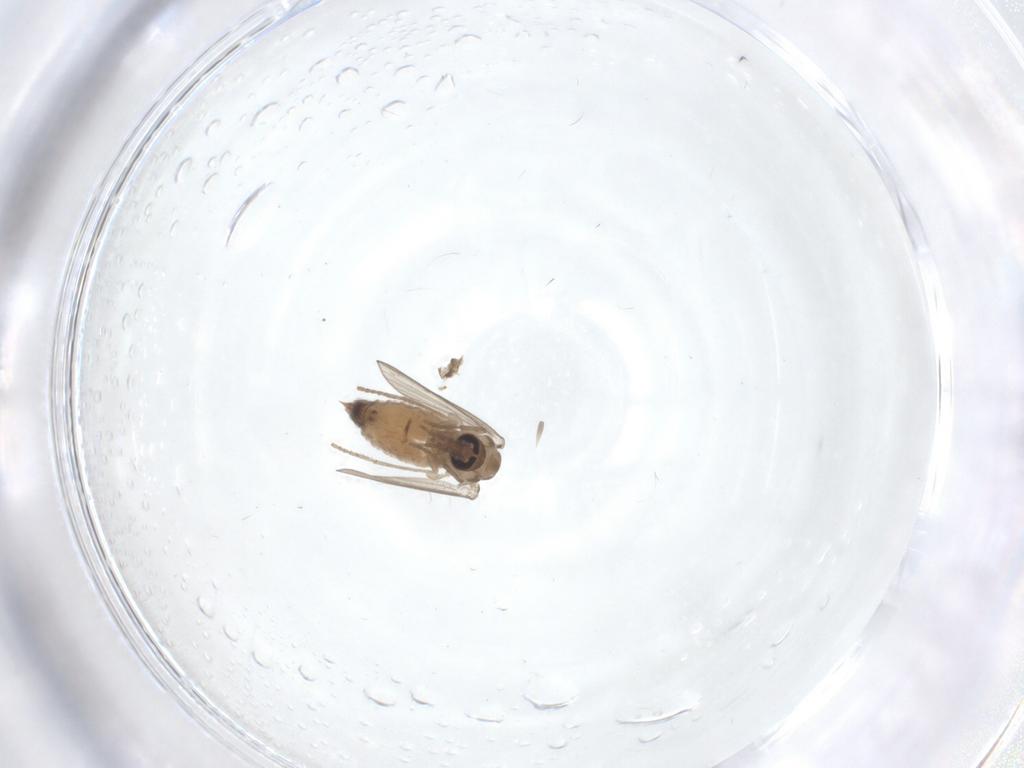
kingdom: Animalia
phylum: Arthropoda
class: Insecta
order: Diptera
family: Psychodidae
